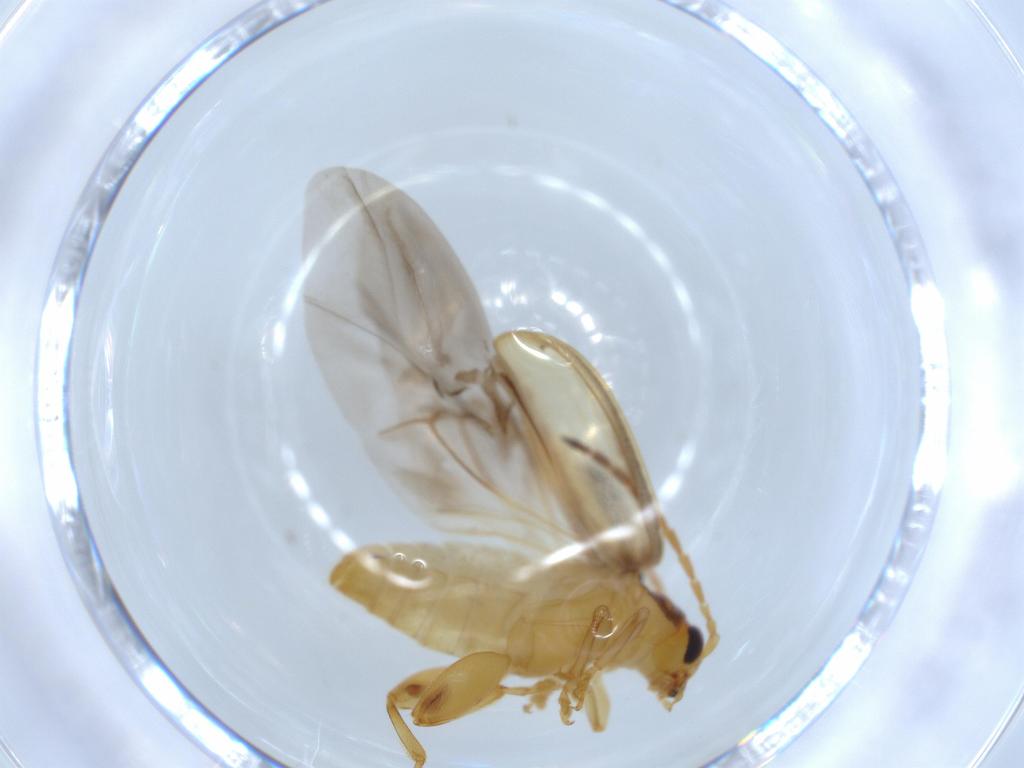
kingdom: Animalia
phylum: Arthropoda
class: Insecta
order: Coleoptera
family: Chrysomelidae
